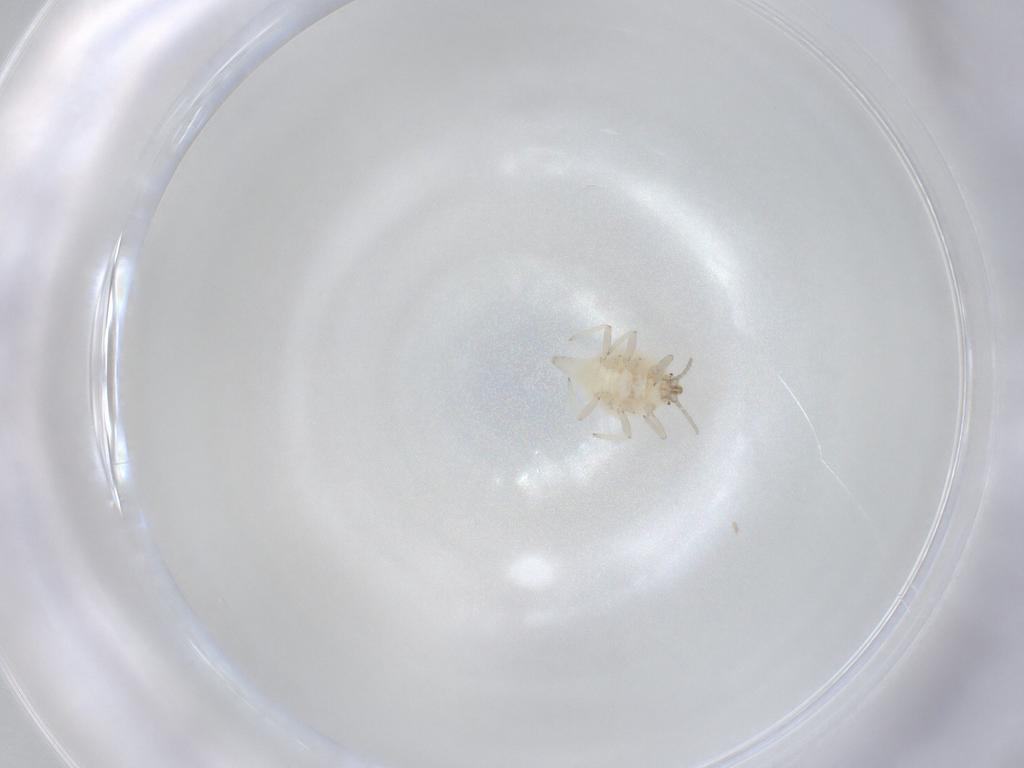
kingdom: Animalia
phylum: Arthropoda
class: Insecta
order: Neuroptera
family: Coniopterygidae
